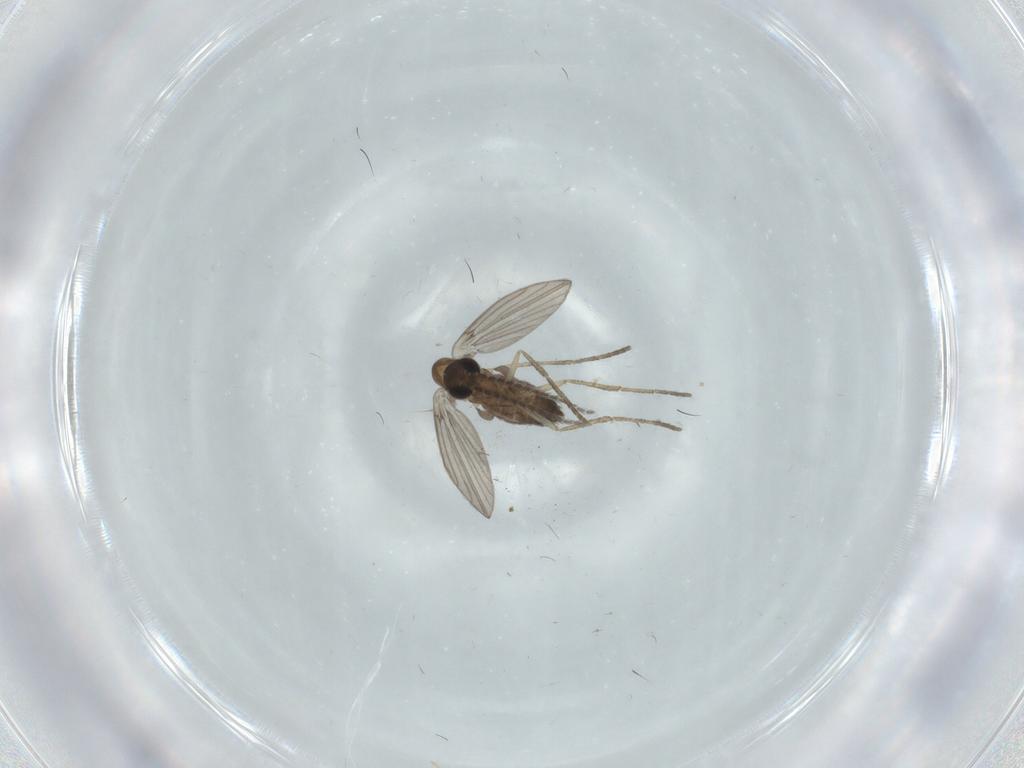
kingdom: Animalia
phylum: Arthropoda
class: Insecta
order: Diptera
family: Psychodidae
